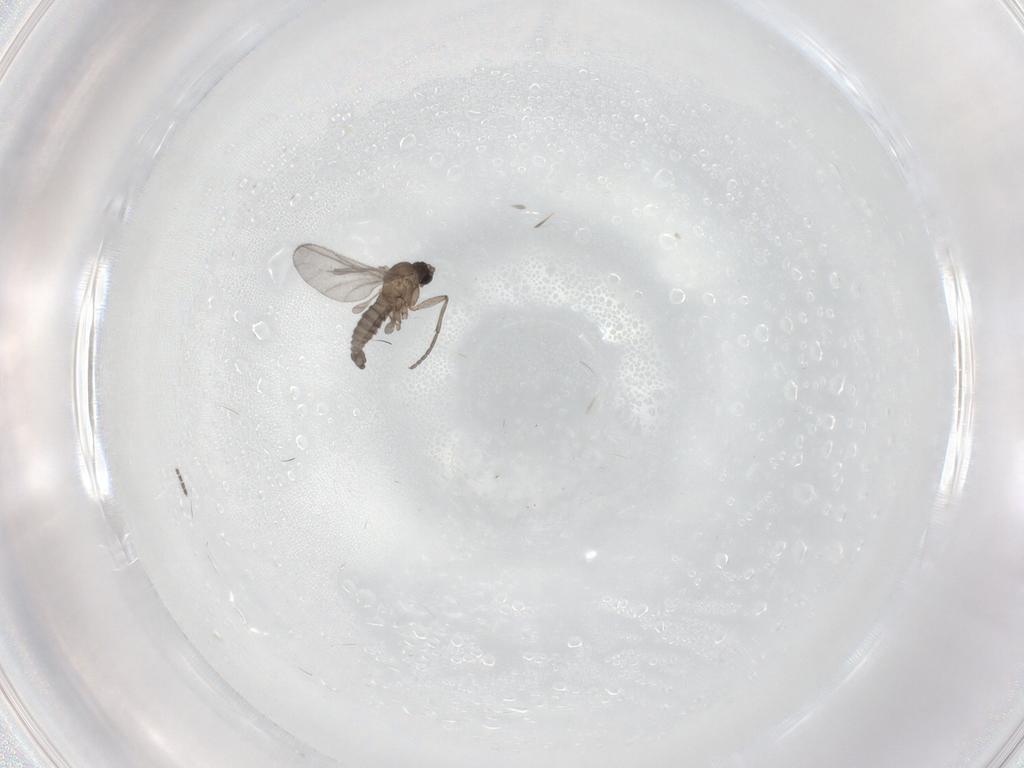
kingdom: Animalia
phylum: Arthropoda
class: Insecta
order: Diptera
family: Sciaridae
